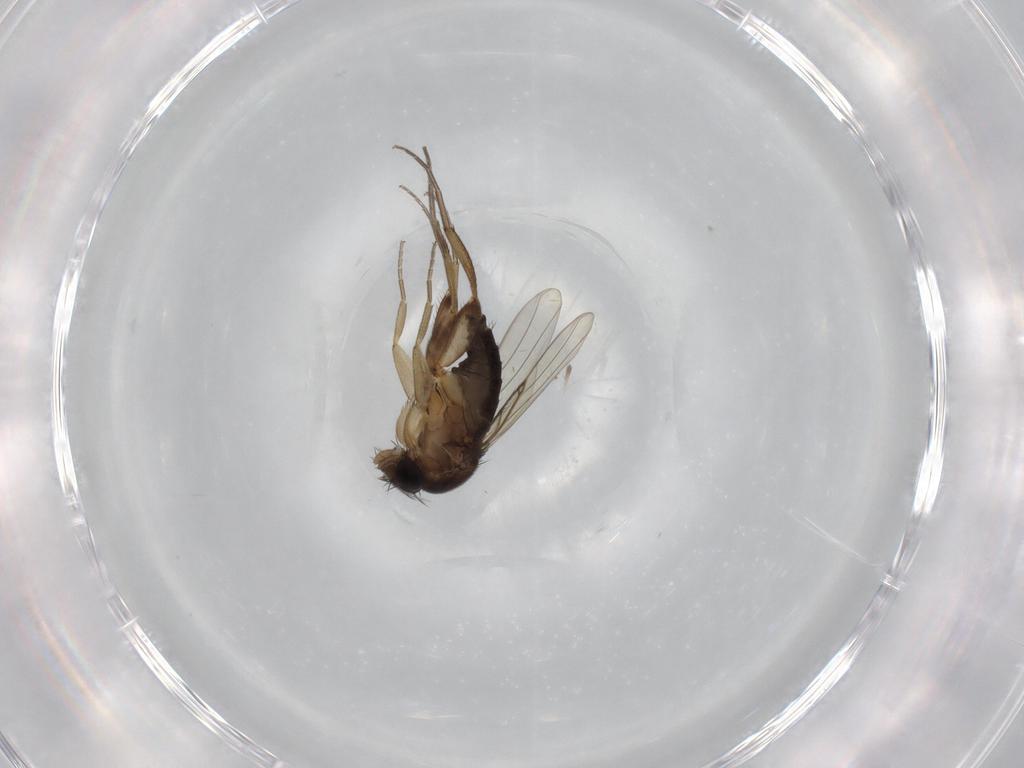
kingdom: Animalia
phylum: Arthropoda
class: Insecta
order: Diptera
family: Phoridae
